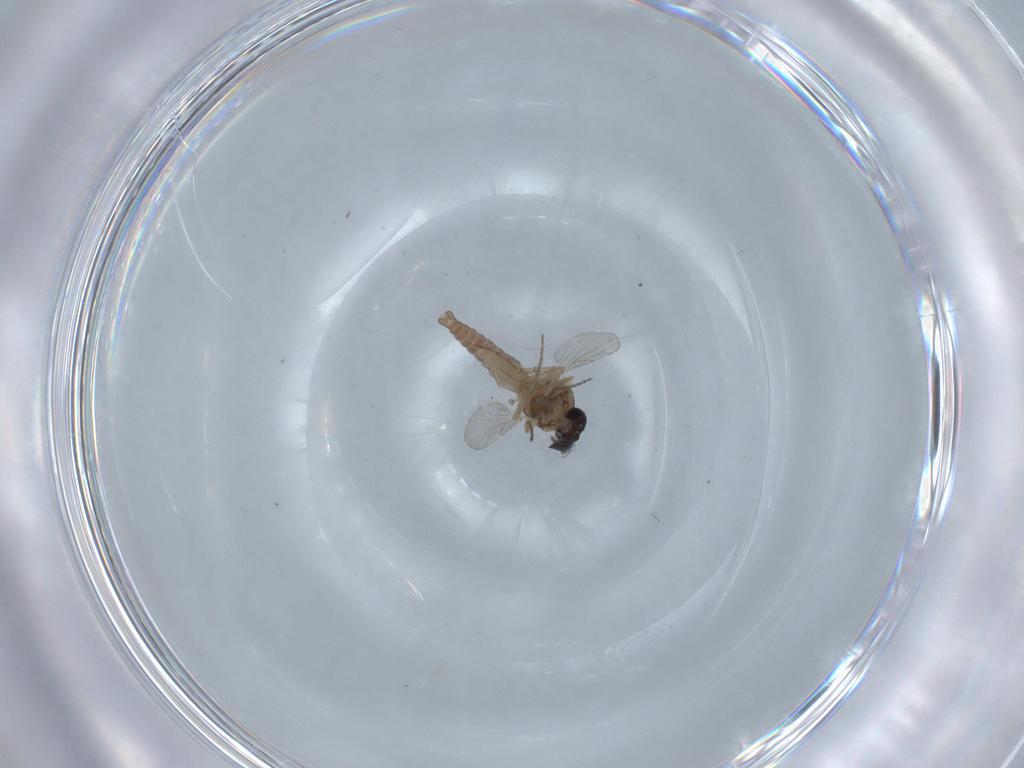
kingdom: Animalia
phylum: Arthropoda
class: Insecta
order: Diptera
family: Ceratopogonidae
